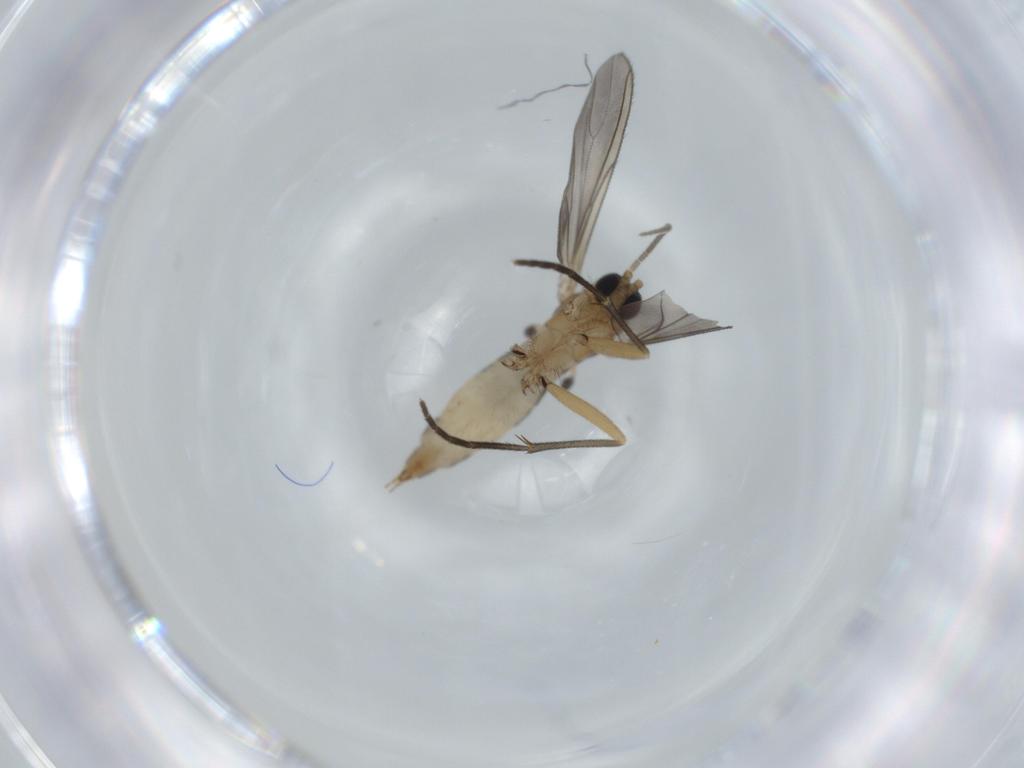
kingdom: Animalia
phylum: Arthropoda
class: Insecta
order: Diptera
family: Sciaridae
